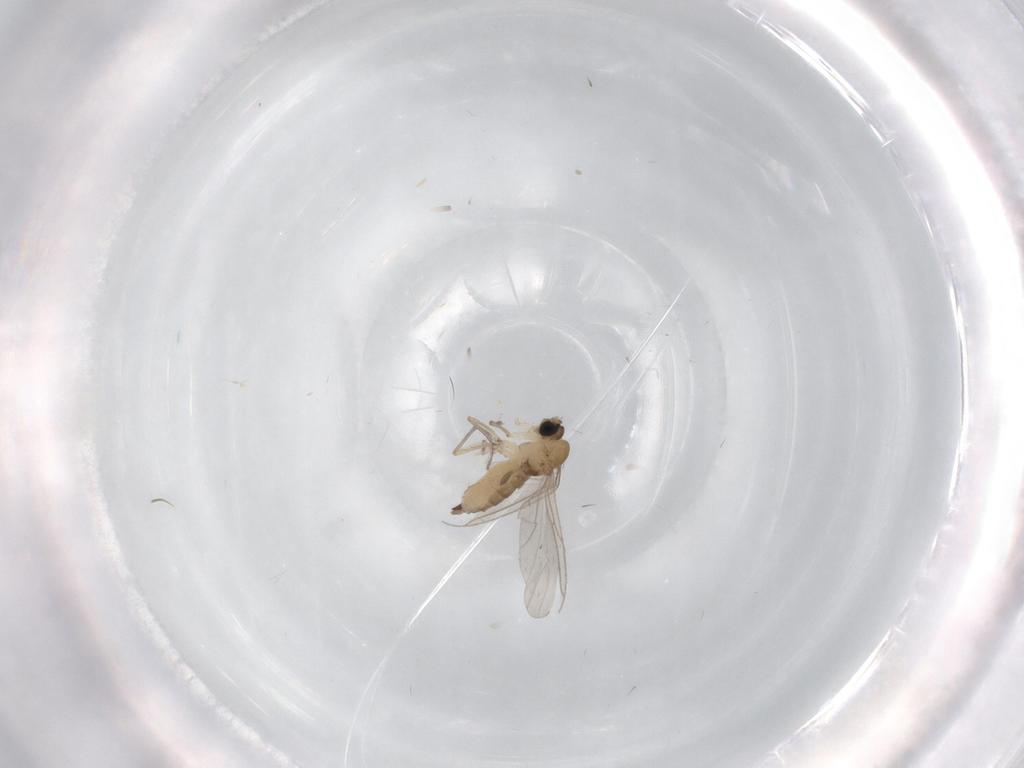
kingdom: Animalia
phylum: Arthropoda
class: Insecta
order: Diptera
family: Sciaridae
